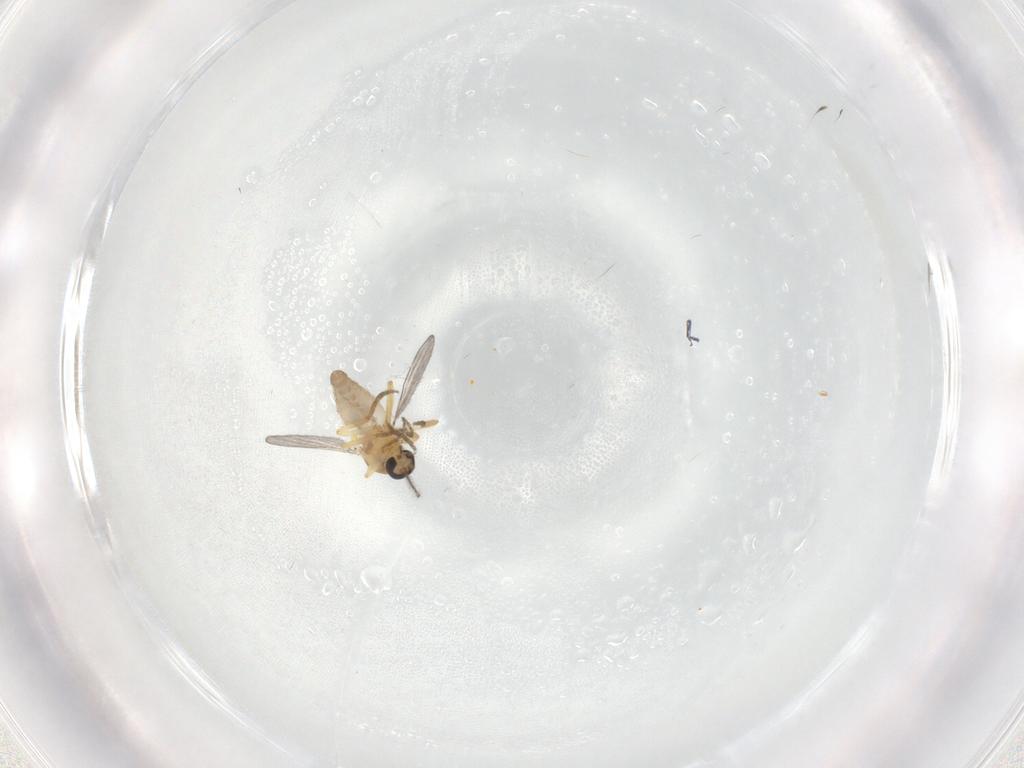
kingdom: Animalia
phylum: Arthropoda
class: Insecta
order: Diptera
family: Ceratopogonidae
